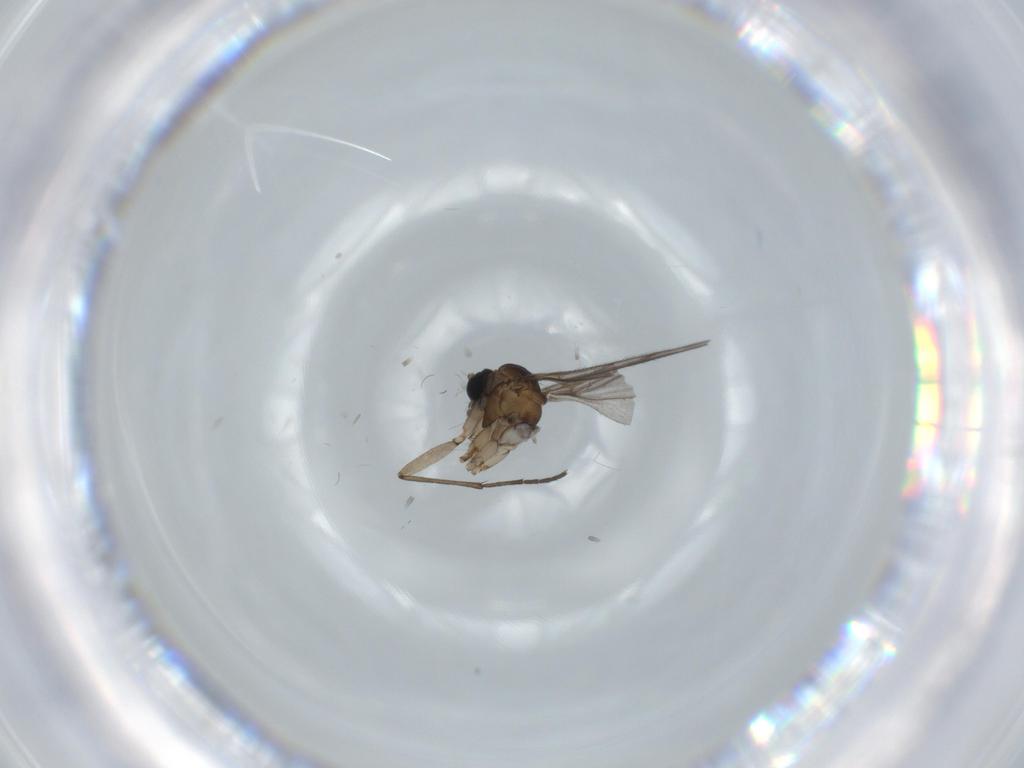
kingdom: Animalia
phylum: Arthropoda
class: Insecta
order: Diptera
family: Sciaridae
